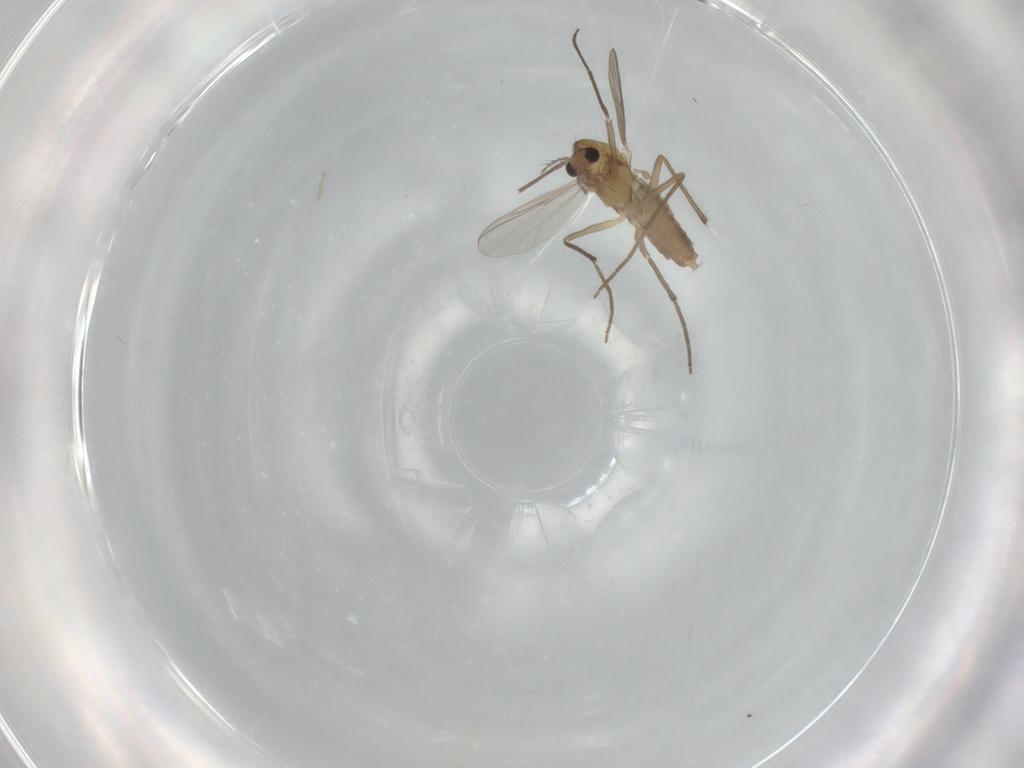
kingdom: Animalia
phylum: Arthropoda
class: Insecta
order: Diptera
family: Chironomidae
